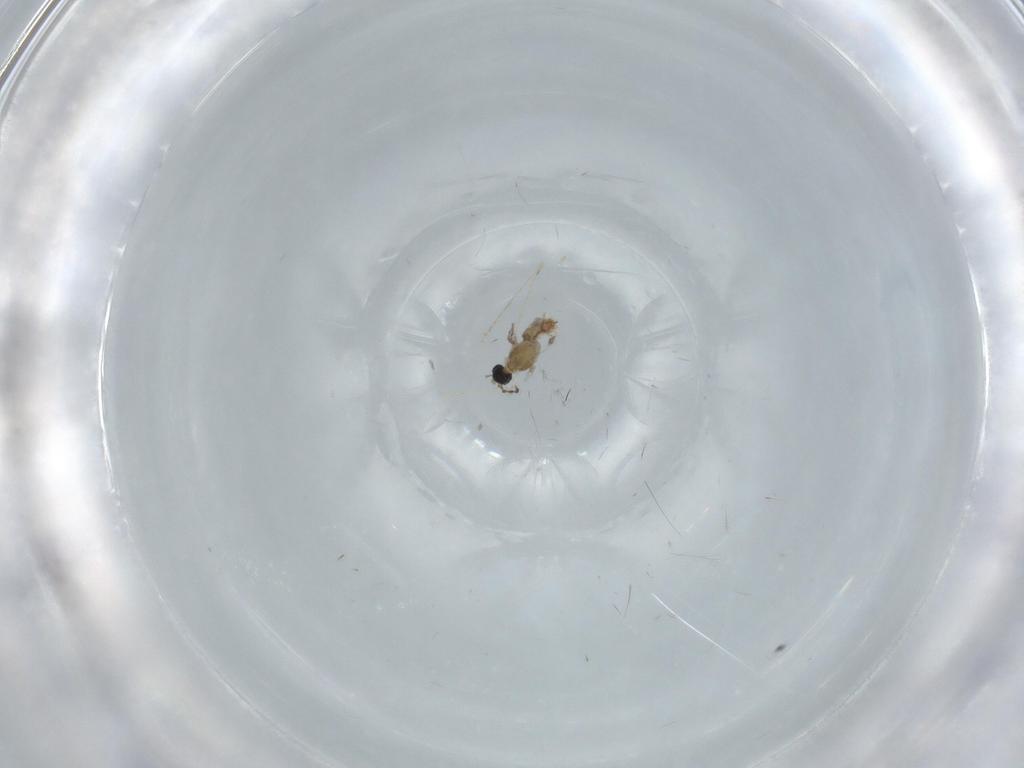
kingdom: Animalia
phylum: Arthropoda
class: Insecta
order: Diptera
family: Cecidomyiidae
